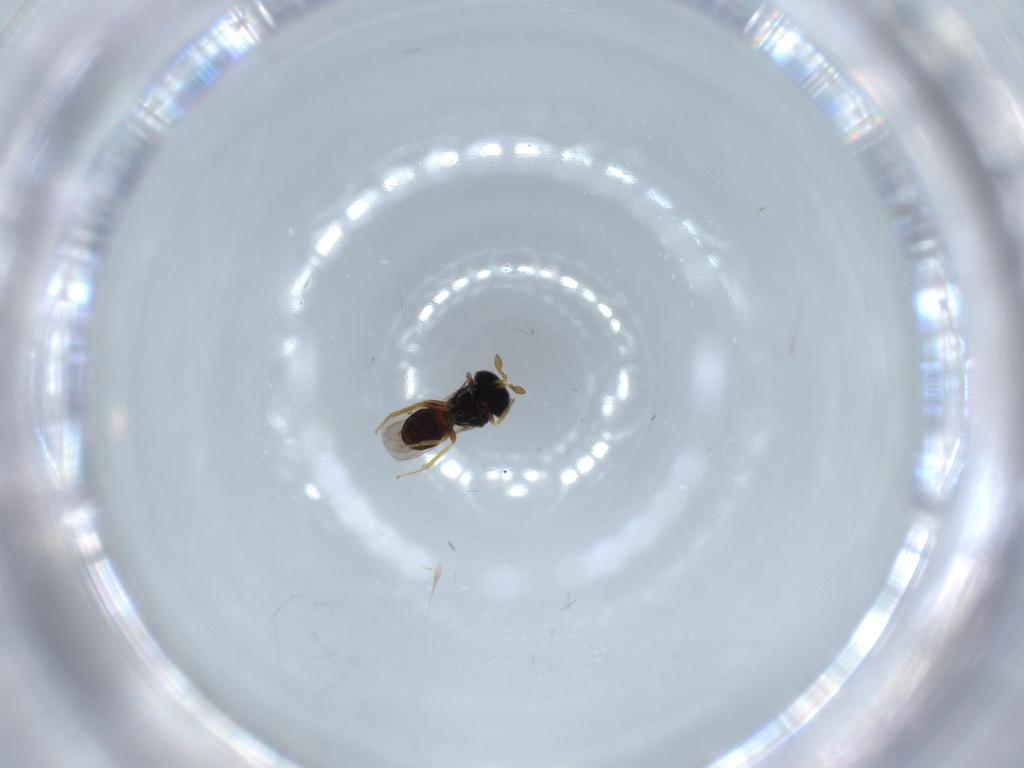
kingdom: Animalia
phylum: Arthropoda
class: Insecta
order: Hymenoptera
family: Scelionidae
